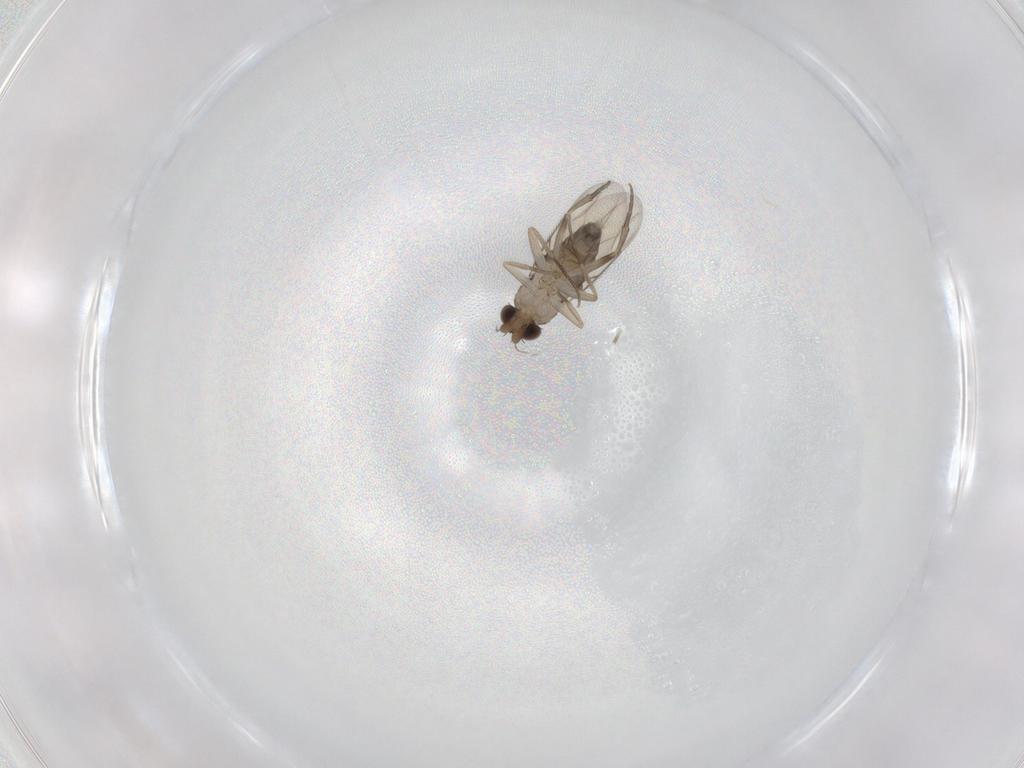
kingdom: Animalia
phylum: Arthropoda
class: Insecta
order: Diptera
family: Phoridae
